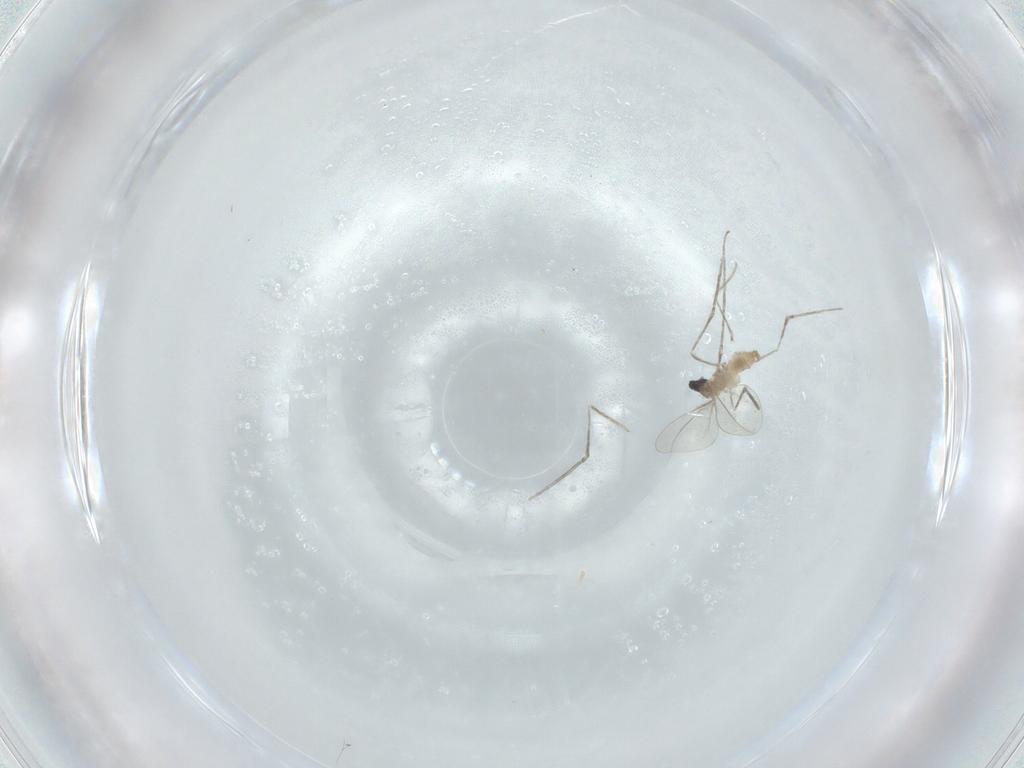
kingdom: Animalia
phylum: Arthropoda
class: Insecta
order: Diptera
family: Cecidomyiidae
